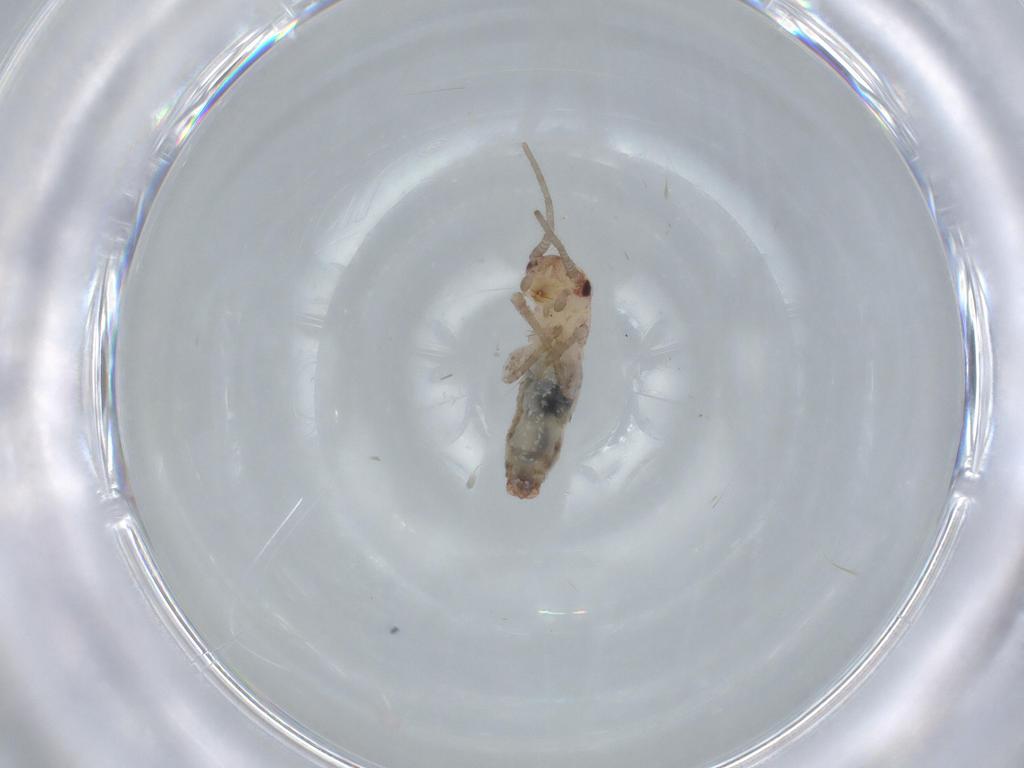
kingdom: Animalia
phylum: Arthropoda
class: Insecta
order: Orthoptera
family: Mogoplistidae
